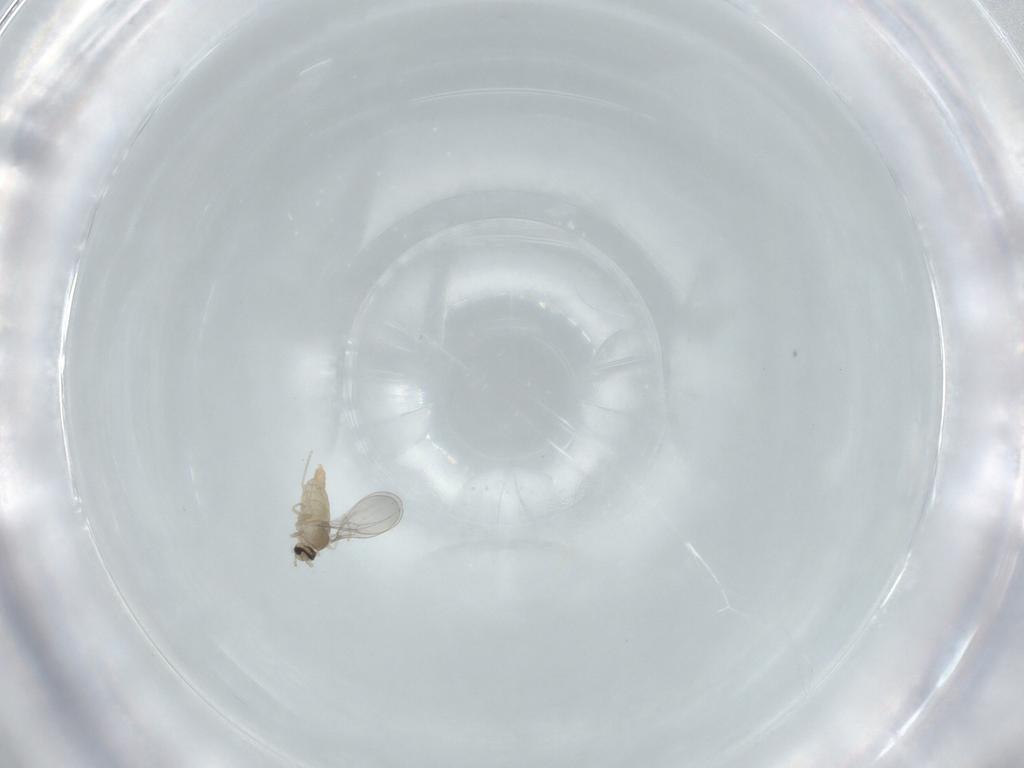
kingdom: Animalia
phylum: Arthropoda
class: Insecta
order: Diptera
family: Cecidomyiidae
